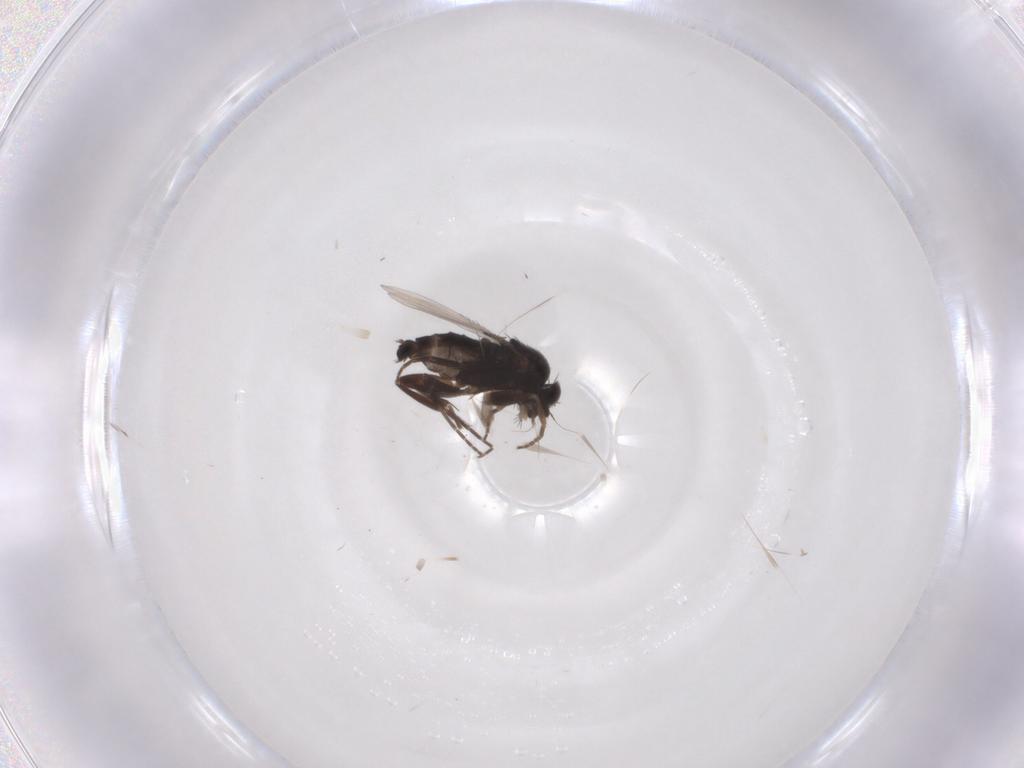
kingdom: Animalia
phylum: Arthropoda
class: Insecta
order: Diptera
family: Phoridae
